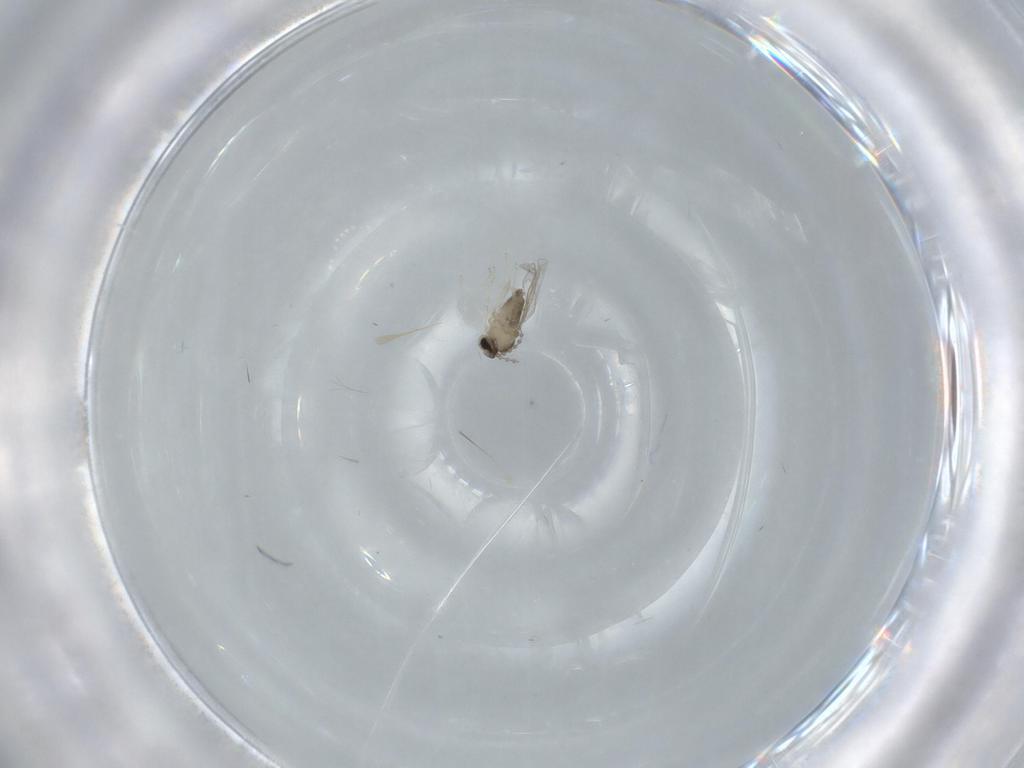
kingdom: Animalia
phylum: Arthropoda
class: Insecta
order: Diptera
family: Cecidomyiidae
